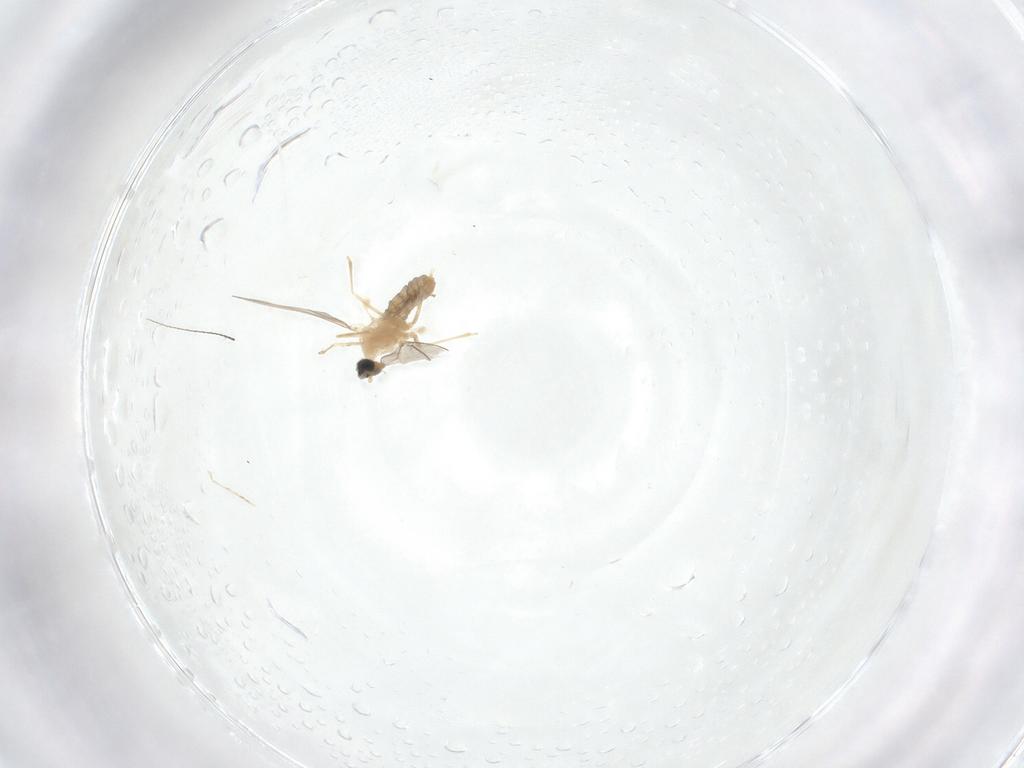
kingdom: Animalia
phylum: Arthropoda
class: Insecta
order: Diptera
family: Cecidomyiidae
